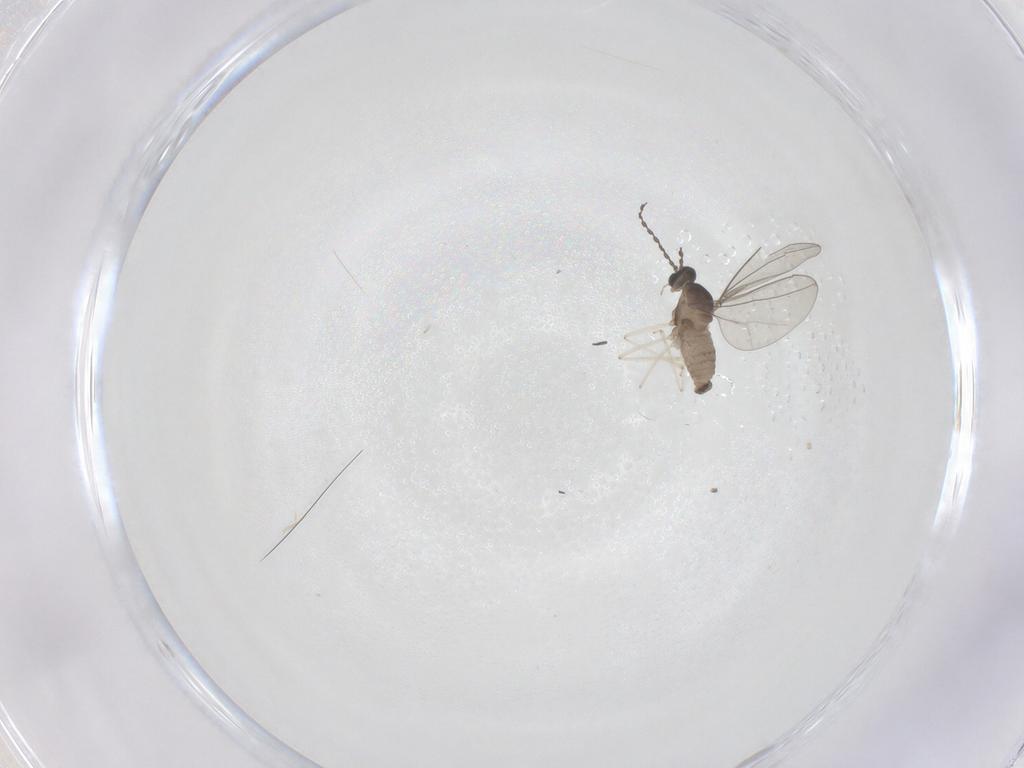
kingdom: Animalia
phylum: Arthropoda
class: Insecta
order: Diptera
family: Cecidomyiidae
